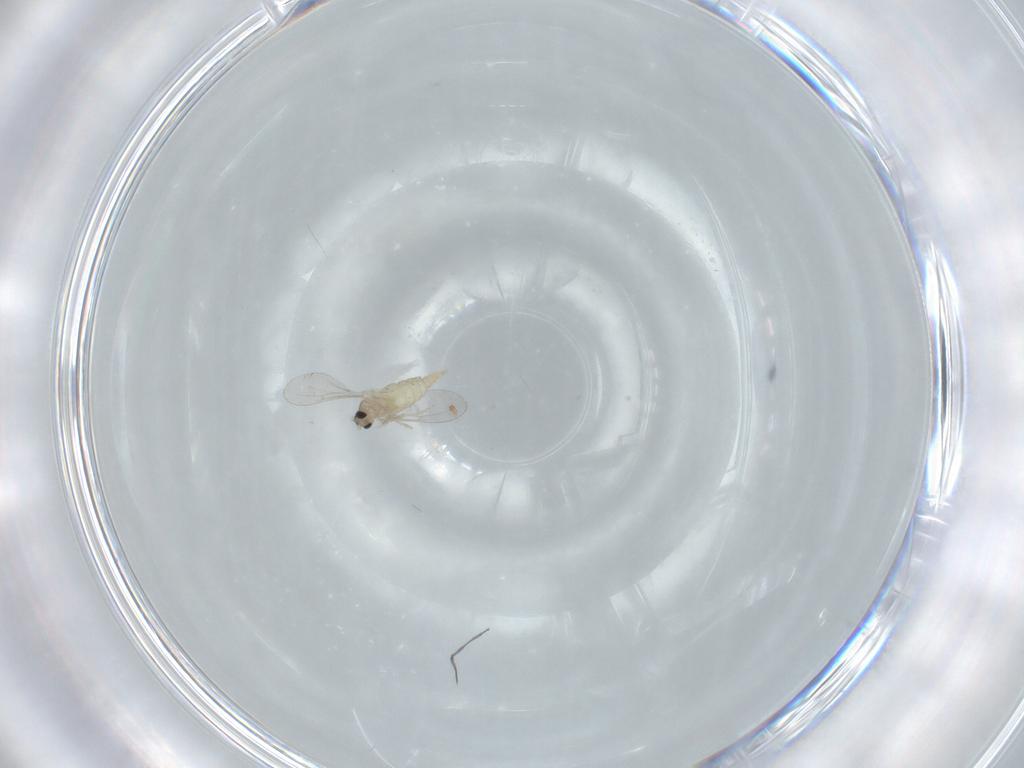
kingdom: Animalia
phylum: Arthropoda
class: Insecta
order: Diptera
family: Cecidomyiidae
